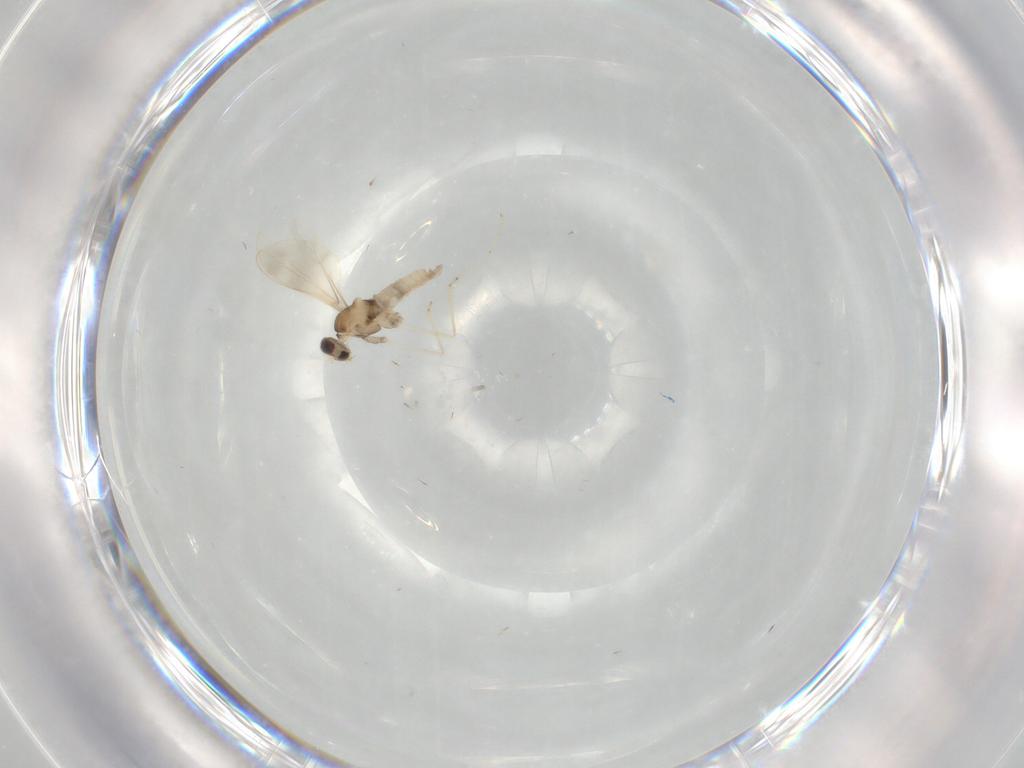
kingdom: Animalia
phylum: Arthropoda
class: Insecta
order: Diptera
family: Cecidomyiidae
